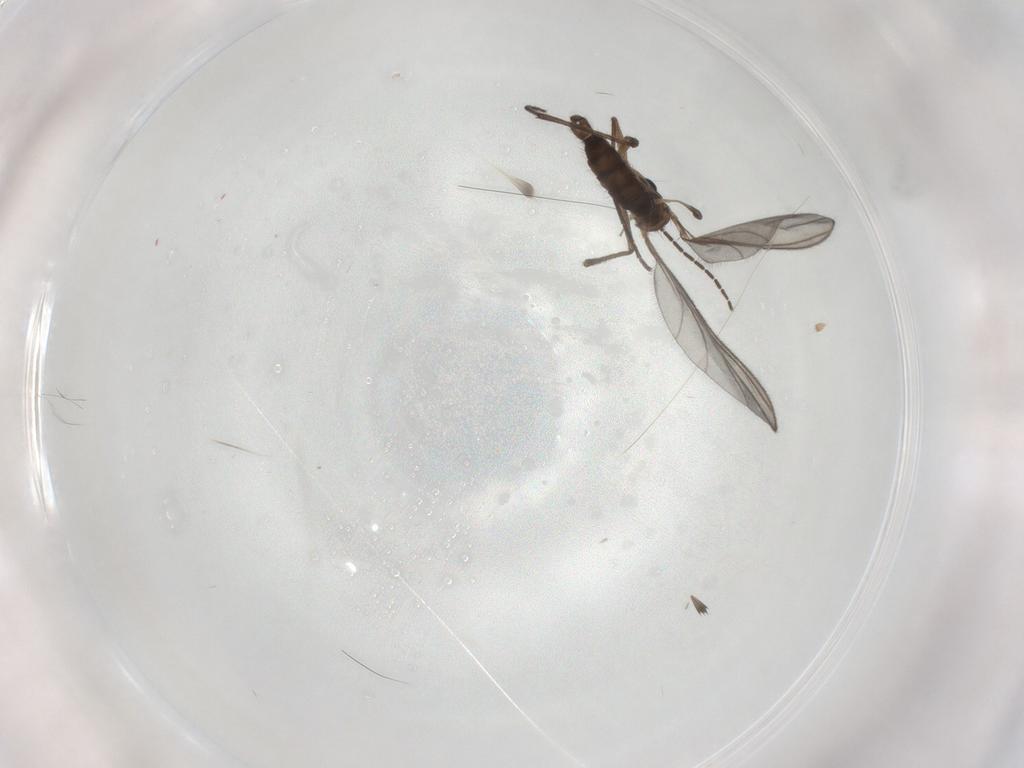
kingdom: Animalia
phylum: Arthropoda
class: Insecta
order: Diptera
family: Sciaridae
